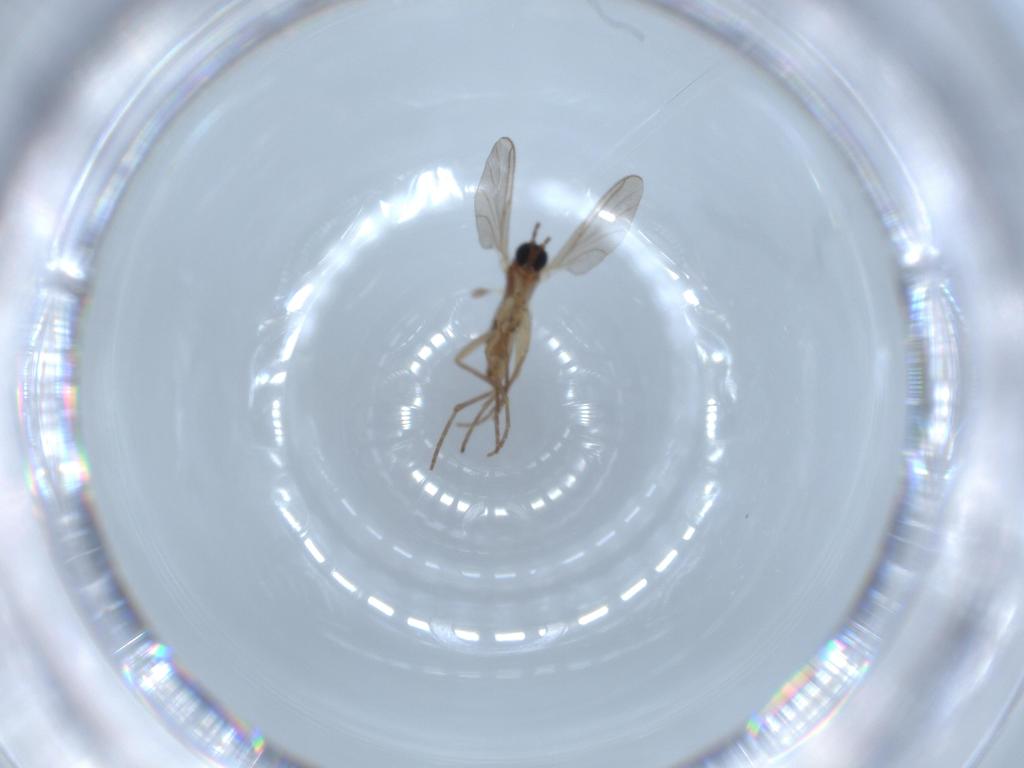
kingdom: Animalia
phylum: Arthropoda
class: Insecta
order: Diptera
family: Sciaridae
